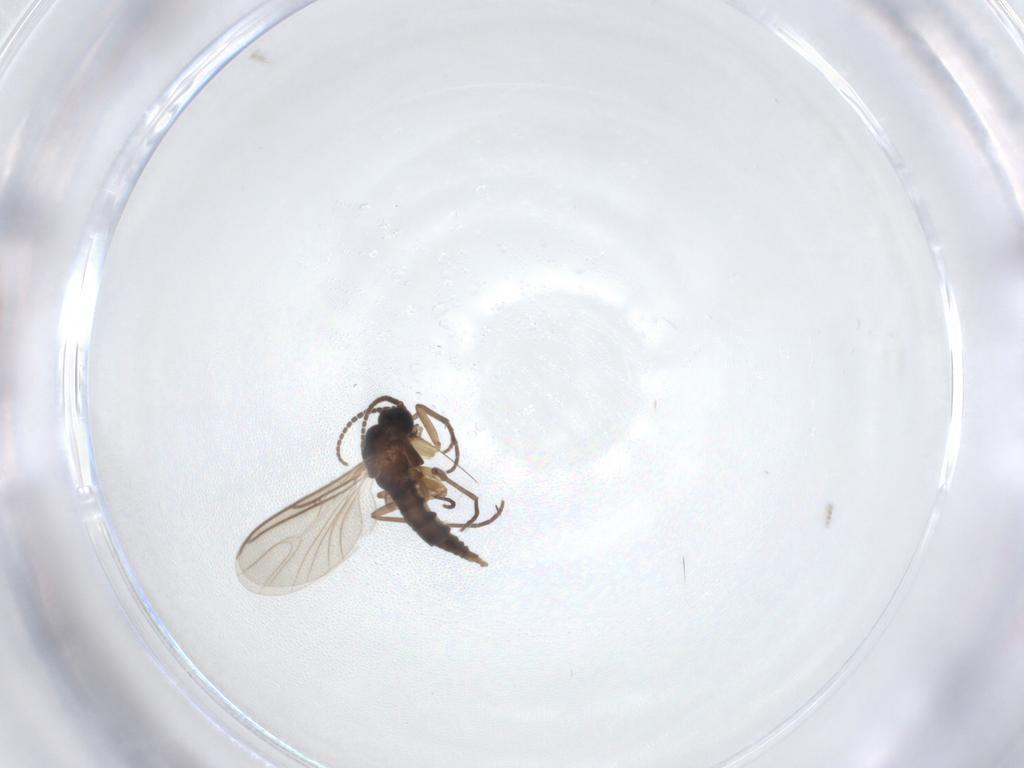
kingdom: Animalia
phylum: Arthropoda
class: Insecta
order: Diptera
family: Sciaridae
